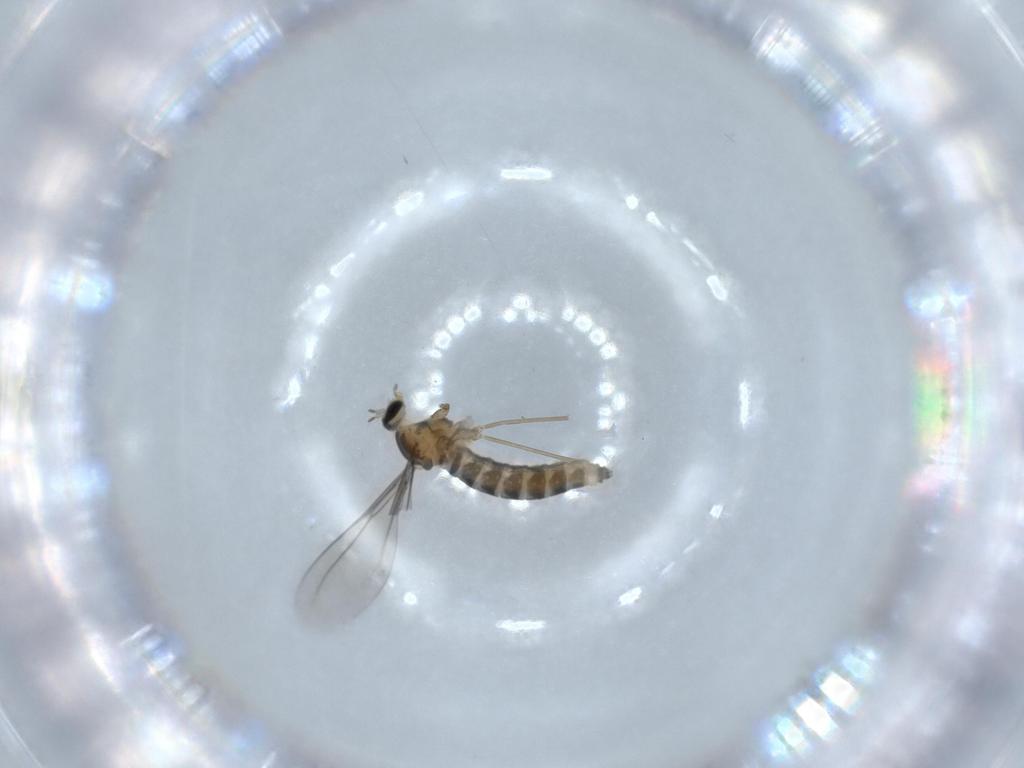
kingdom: Animalia
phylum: Arthropoda
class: Insecta
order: Diptera
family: Cecidomyiidae
